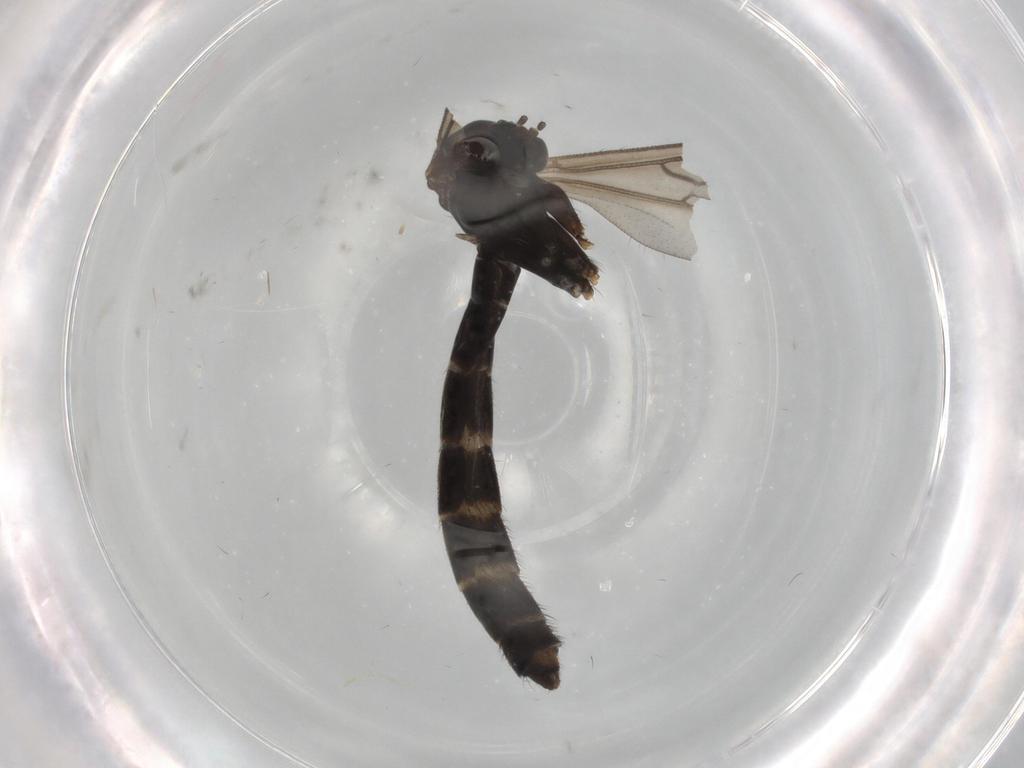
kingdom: Animalia
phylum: Arthropoda
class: Insecta
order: Diptera
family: Ditomyiidae
